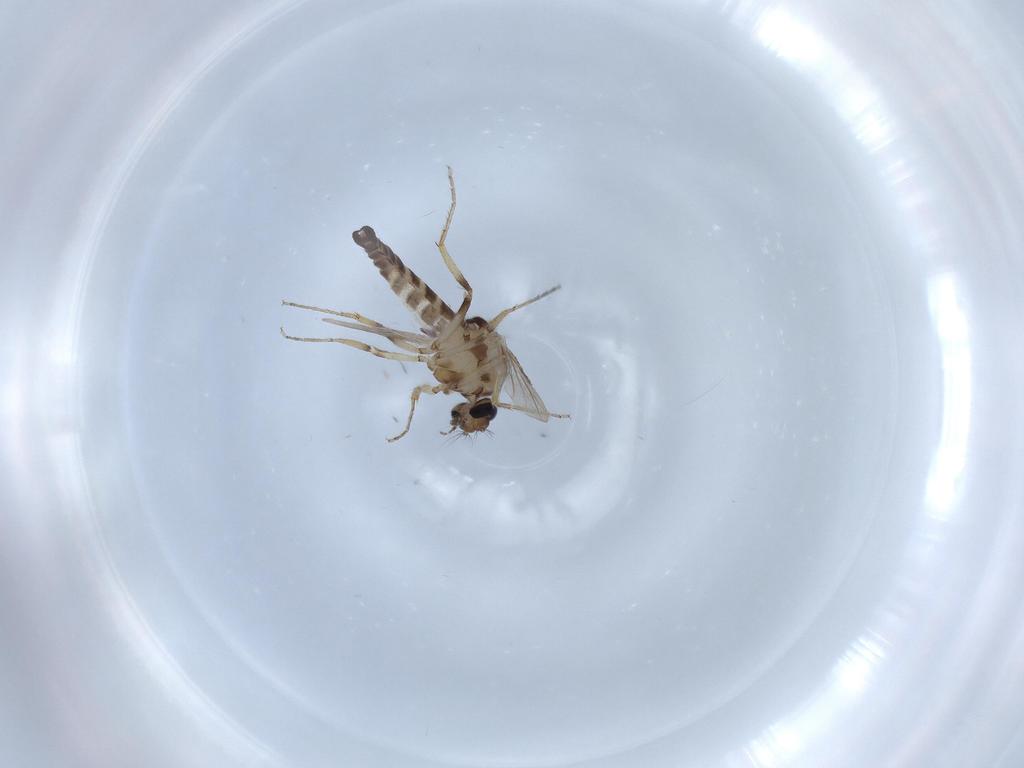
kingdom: Animalia
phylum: Arthropoda
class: Insecta
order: Diptera
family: Ceratopogonidae
